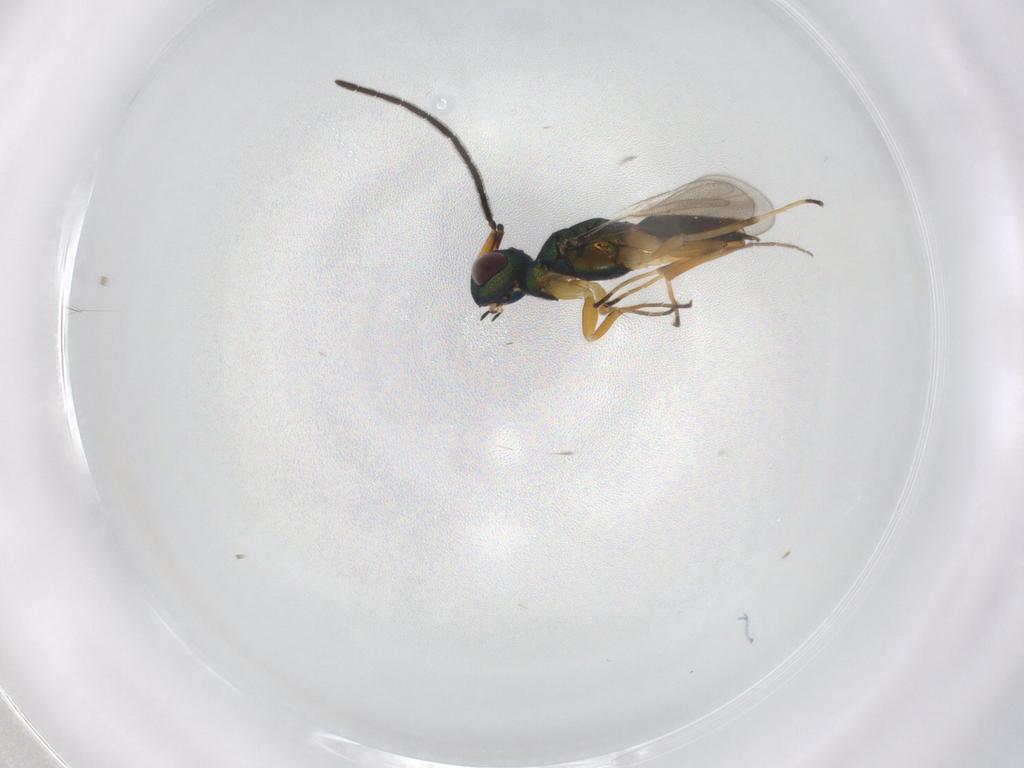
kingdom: Animalia
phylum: Arthropoda
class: Insecta
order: Hymenoptera
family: Eupelmidae
